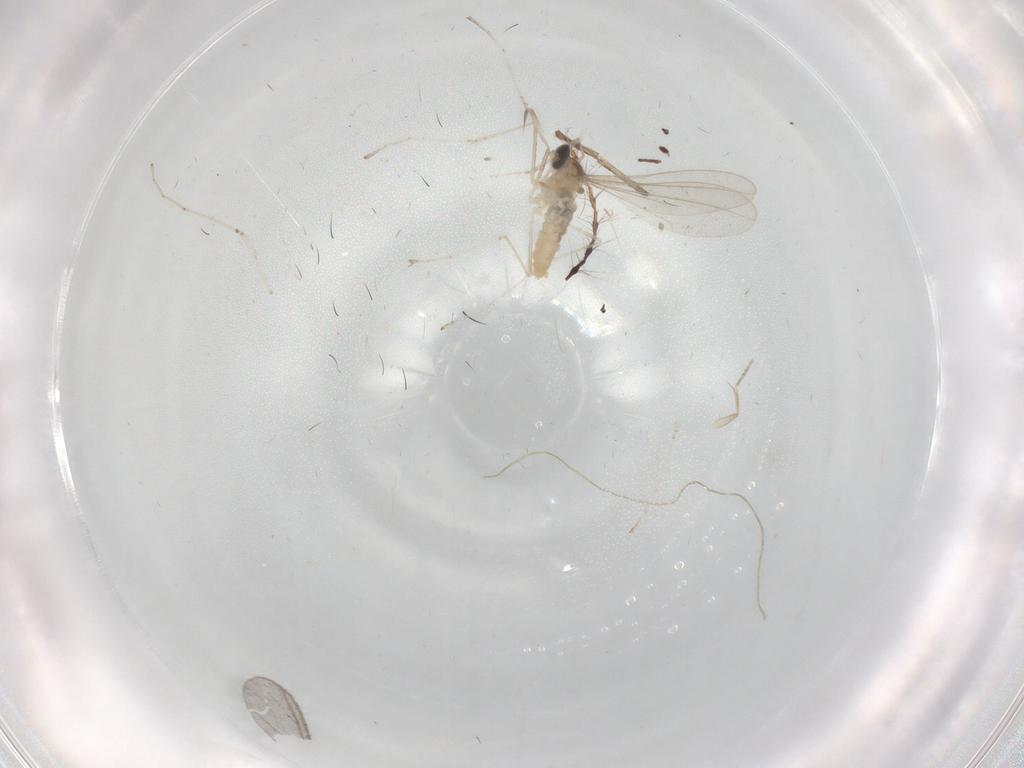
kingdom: Animalia
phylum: Arthropoda
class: Insecta
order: Diptera
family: Cecidomyiidae
